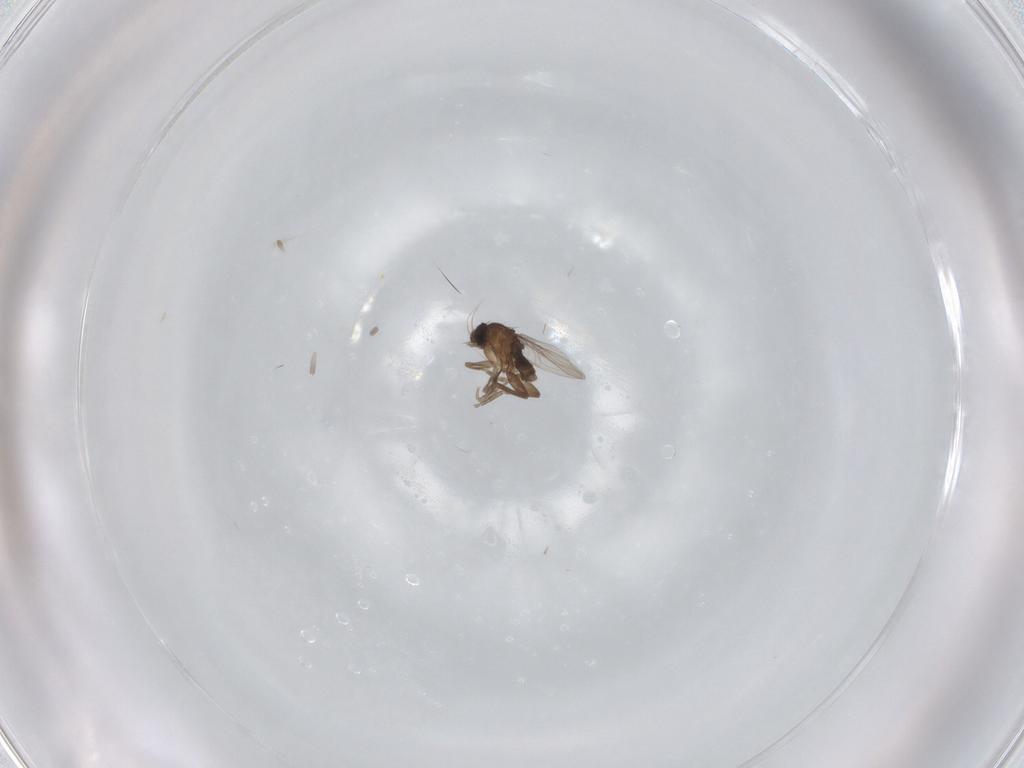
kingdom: Animalia
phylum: Arthropoda
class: Insecta
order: Diptera
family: Phoridae
